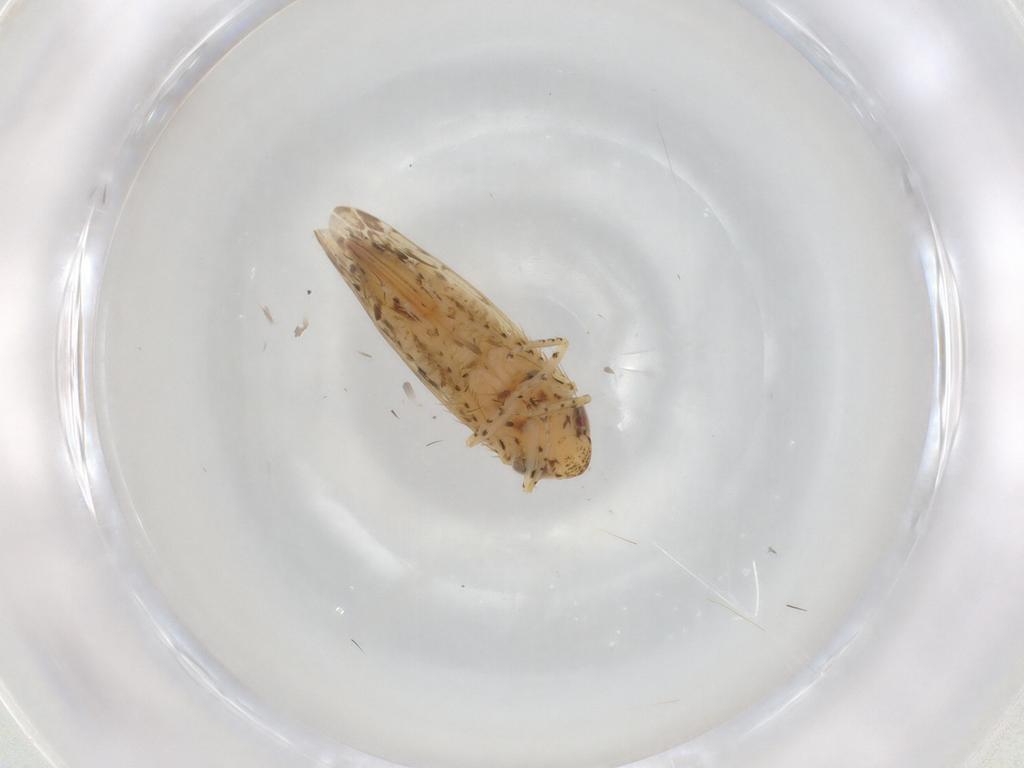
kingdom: Animalia
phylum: Arthropoda
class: Insecta
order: Hemiptera
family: Cicadellidae
